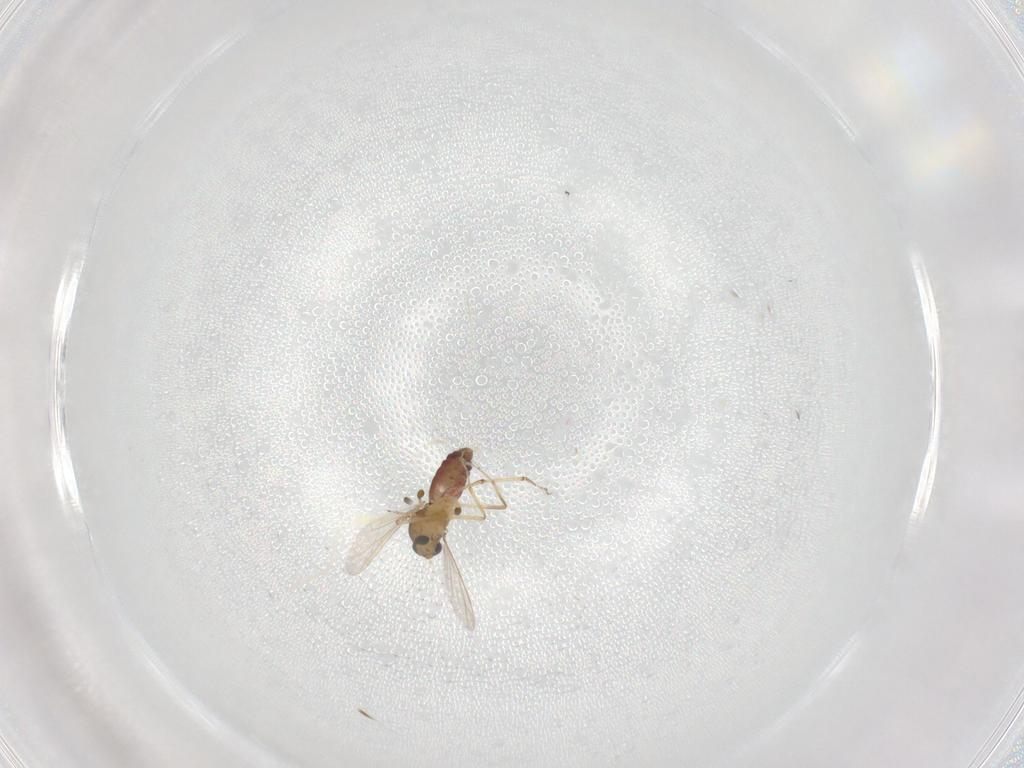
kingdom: Animalia
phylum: Arthropoda
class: Insecta
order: Diptera
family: Ceratopogonidae
